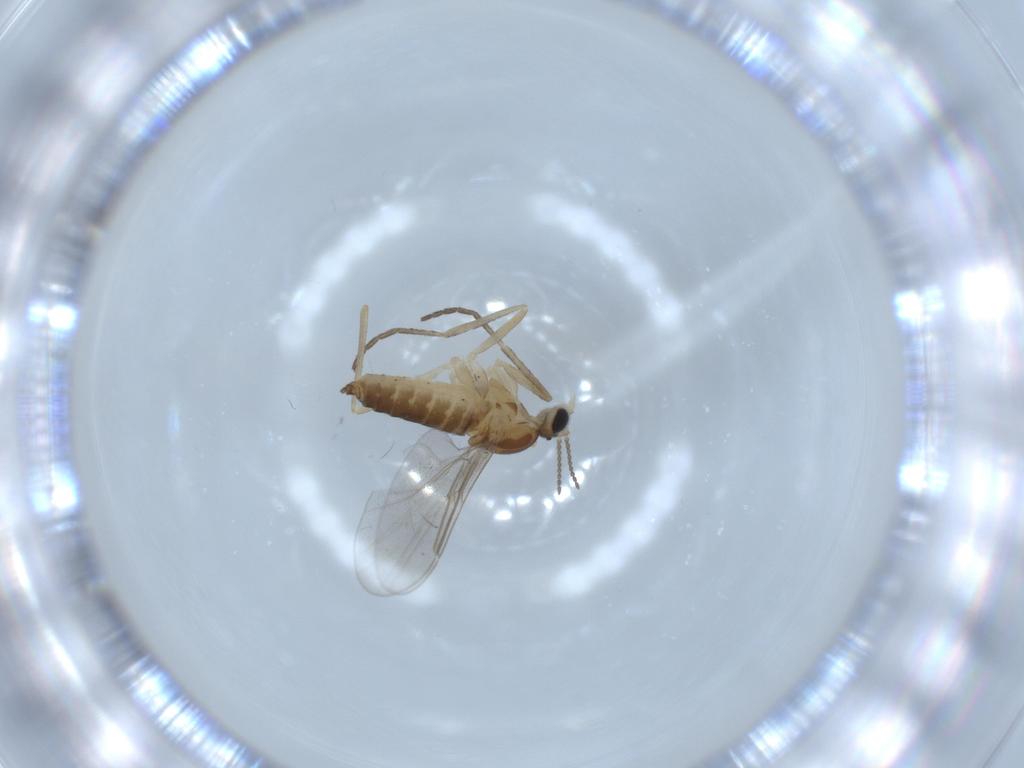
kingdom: Animalia
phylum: Arthropoda
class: Insecta
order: Diptera
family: Cecidomyiidae
